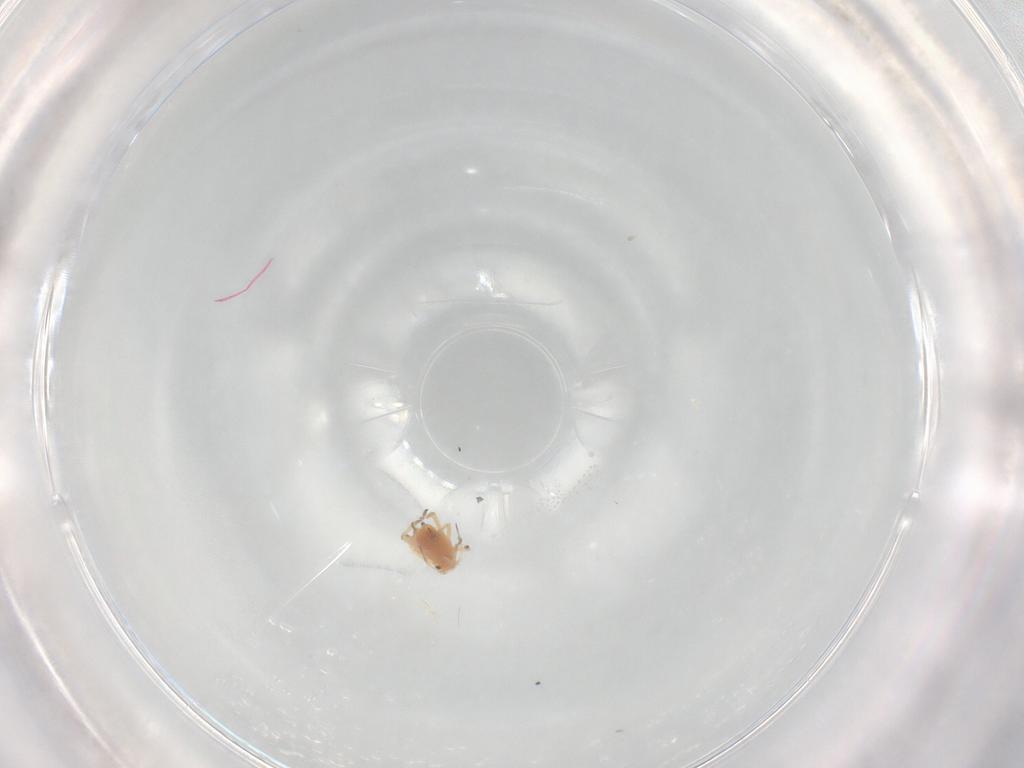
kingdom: Animalia
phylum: Arthropoda
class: Insecta
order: Hemiptera
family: Aphididae
